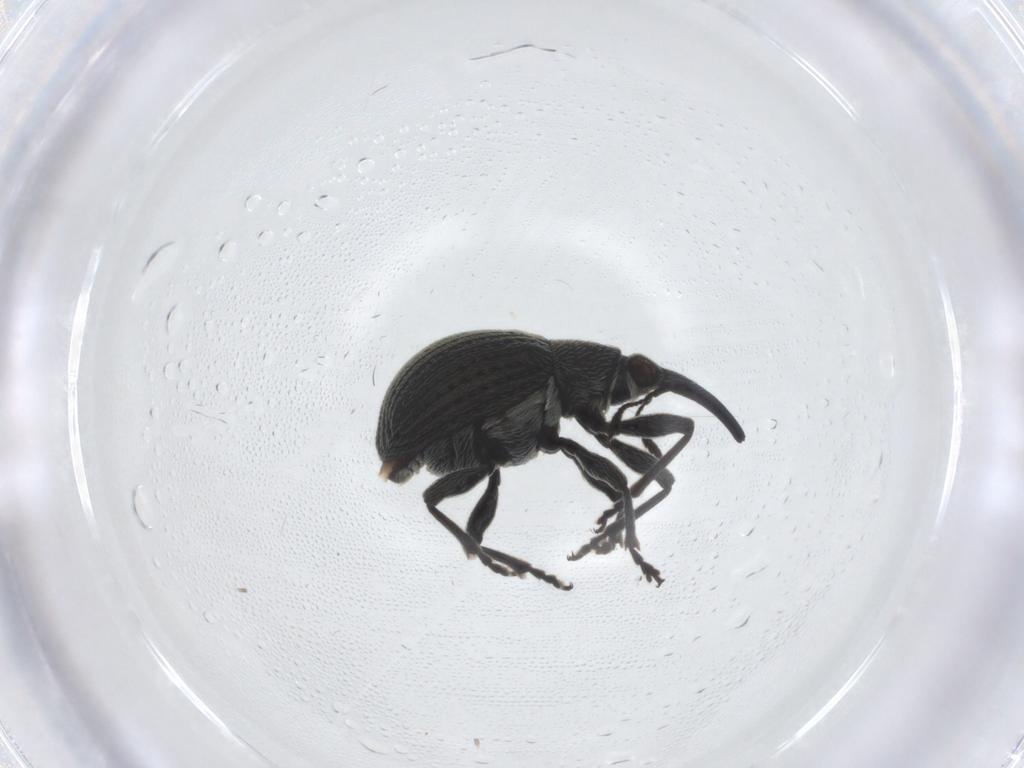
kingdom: Animalia
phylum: Arthropoda
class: Insecta
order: Coleoptera
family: Brentidae
